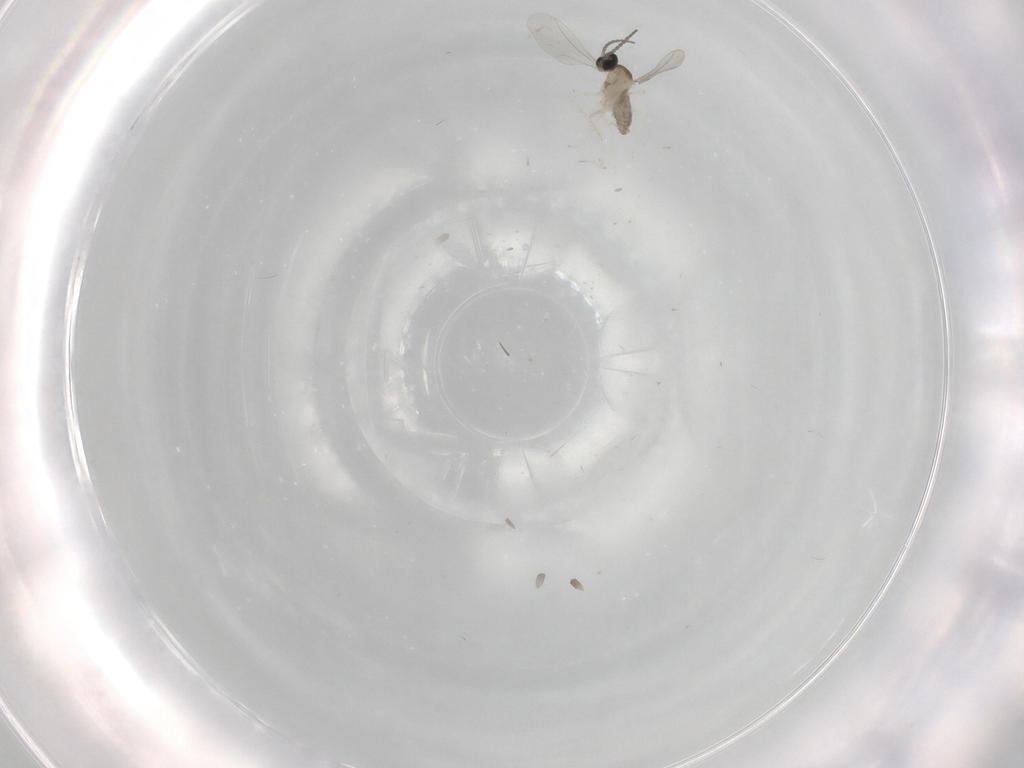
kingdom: Animalia
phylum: Arthropoda
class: Insecta
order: Diptera
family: Cecidomyiidae
